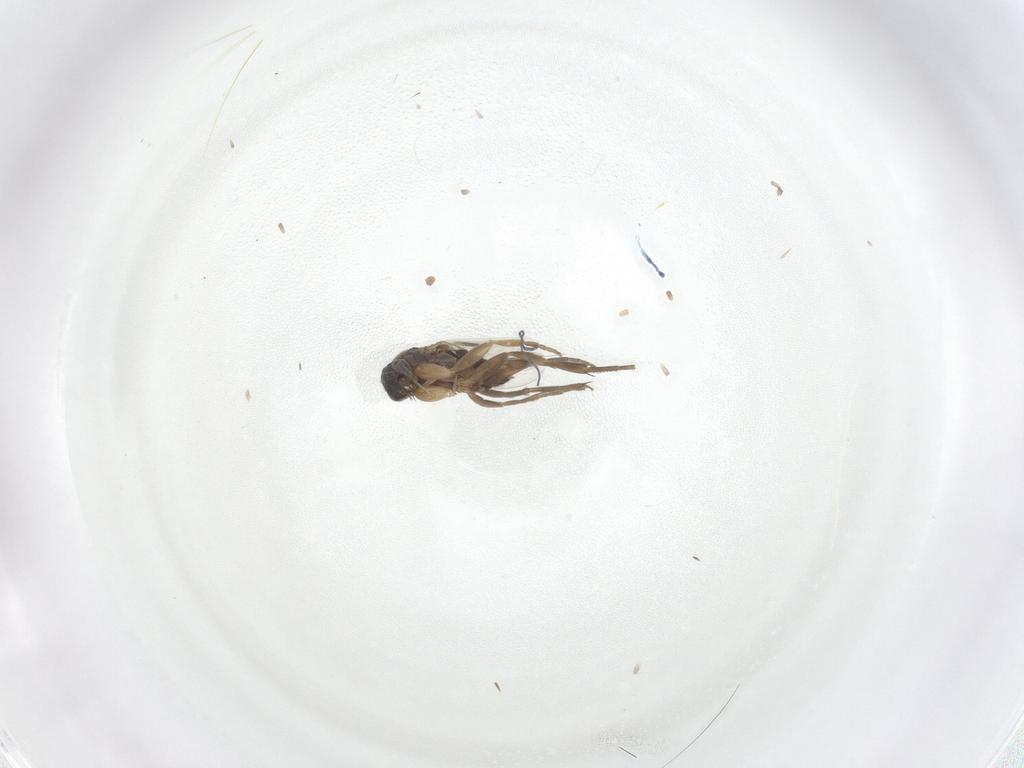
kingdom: Animalia
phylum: Arthropoda
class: Insecta
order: Diptera
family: Phoridae
